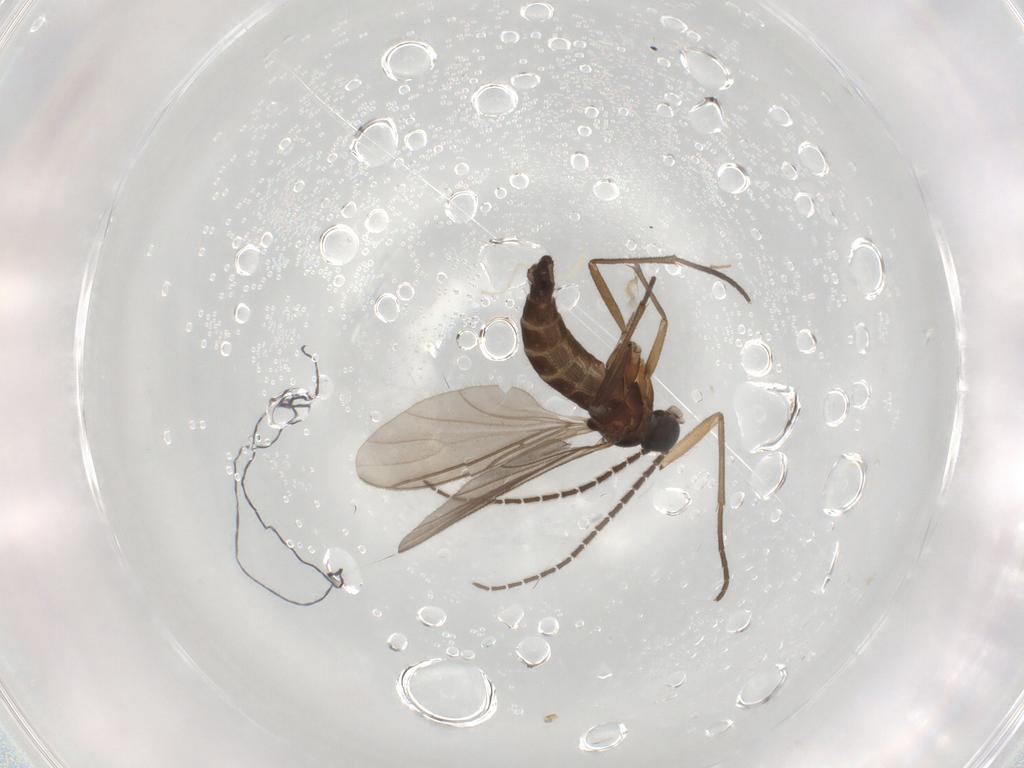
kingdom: Animalia
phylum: Arthropoda
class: Insecta
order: Diptera
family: Sciaridae
